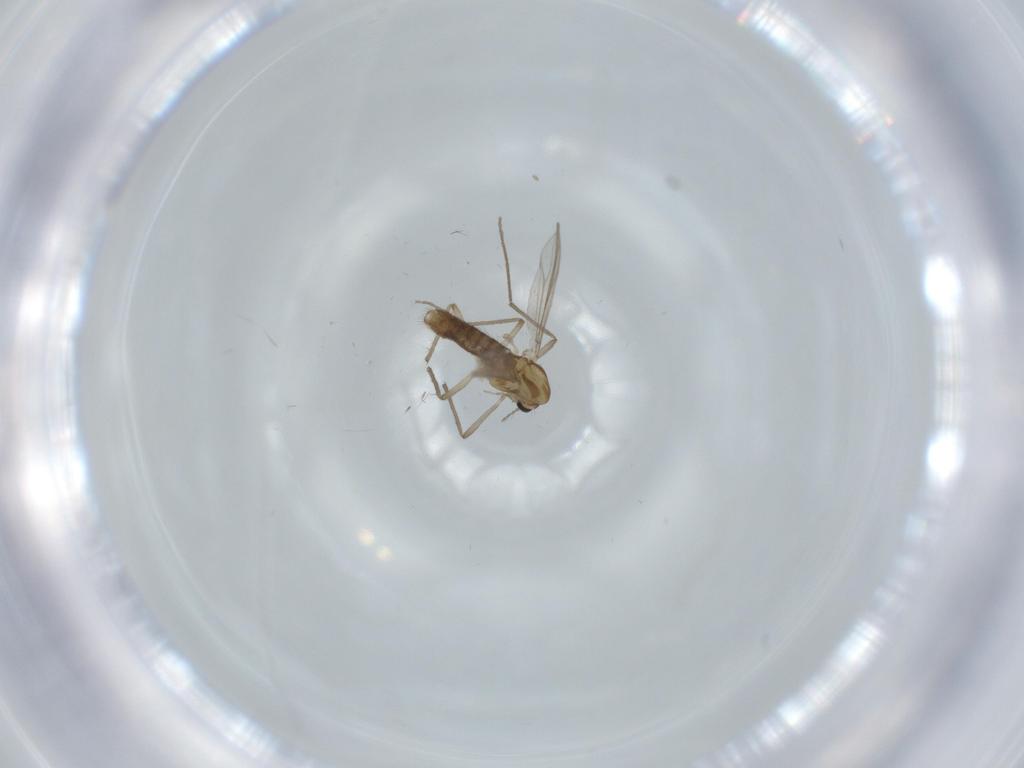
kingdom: Animalia
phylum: Arthropoda
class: Insecta
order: Diptera
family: Chironomidae
